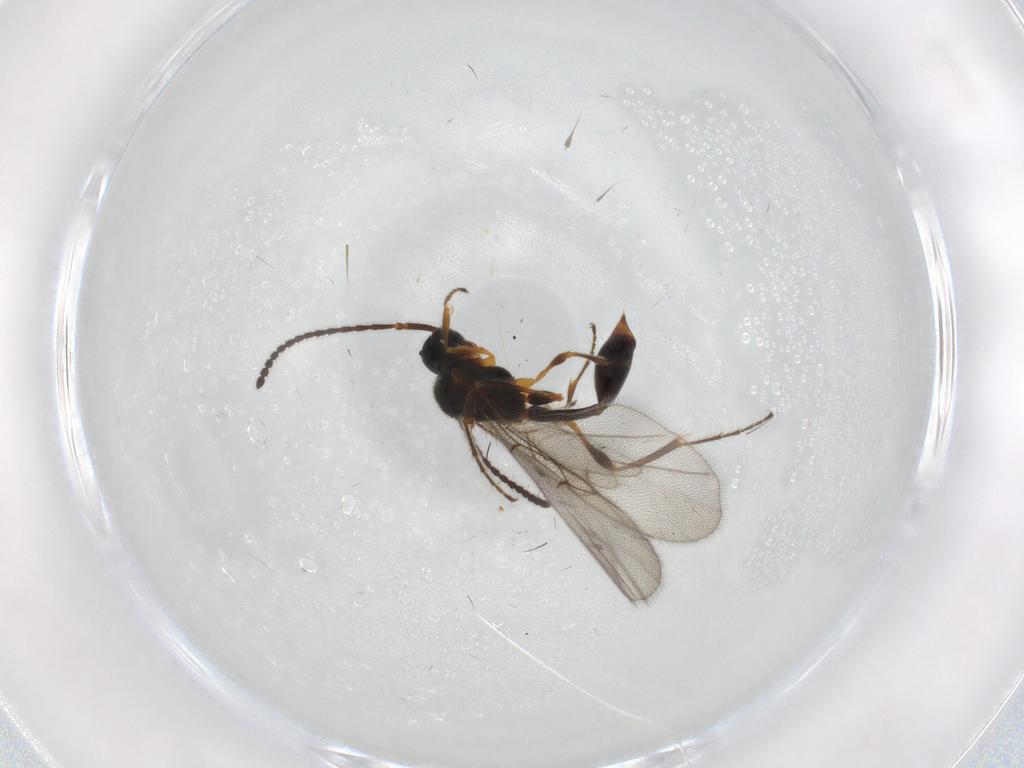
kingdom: Animalia
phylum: Arthropoda
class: Insecta
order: Hymenoptera
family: Diapriidae
